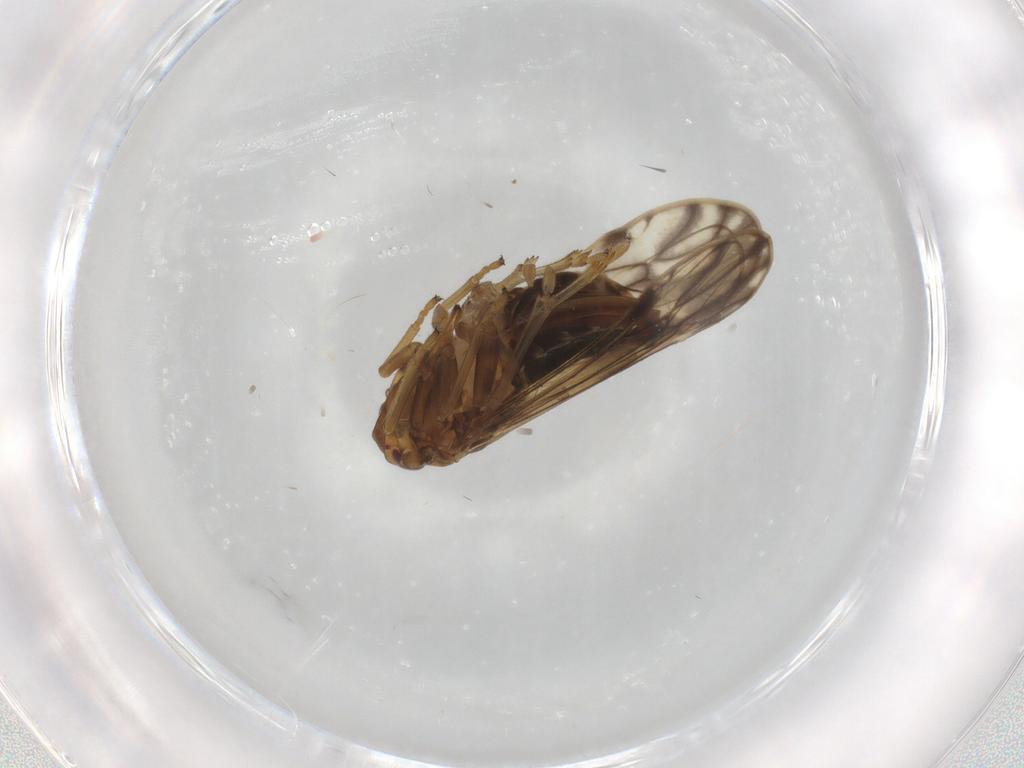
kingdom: Animalia
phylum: Arthropoda
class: Insecta
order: Hemiptera
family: Delphacidae
